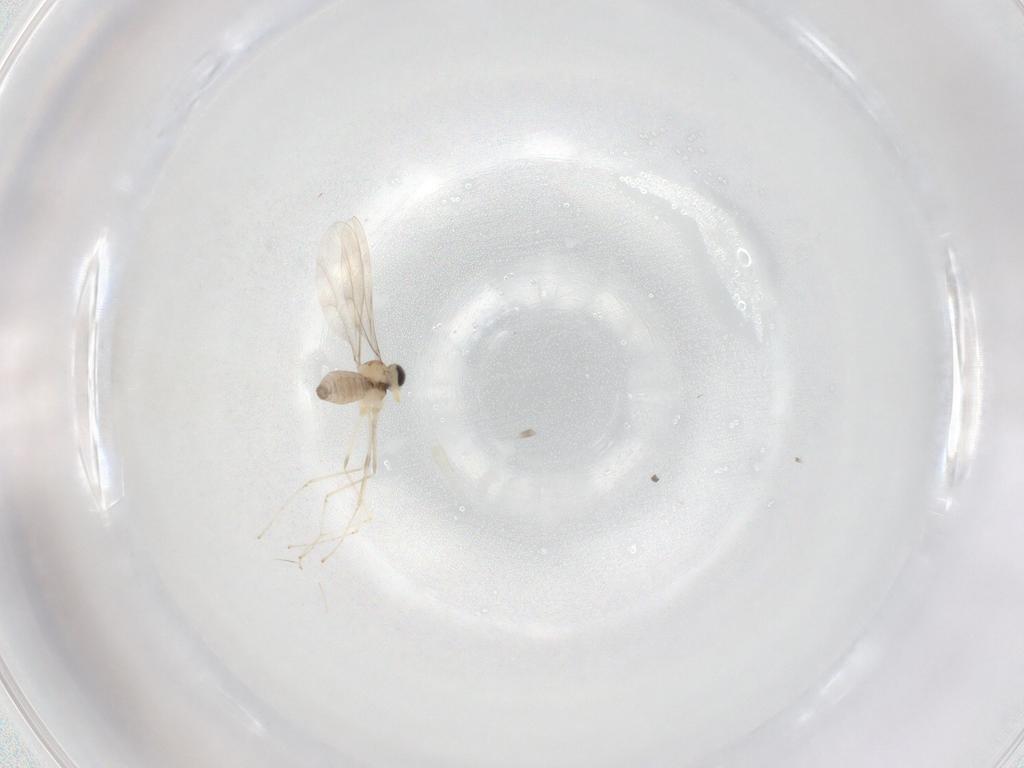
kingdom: Animalia
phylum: Arthropoda
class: Insecta
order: Diptera
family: Cecidomyiidae
